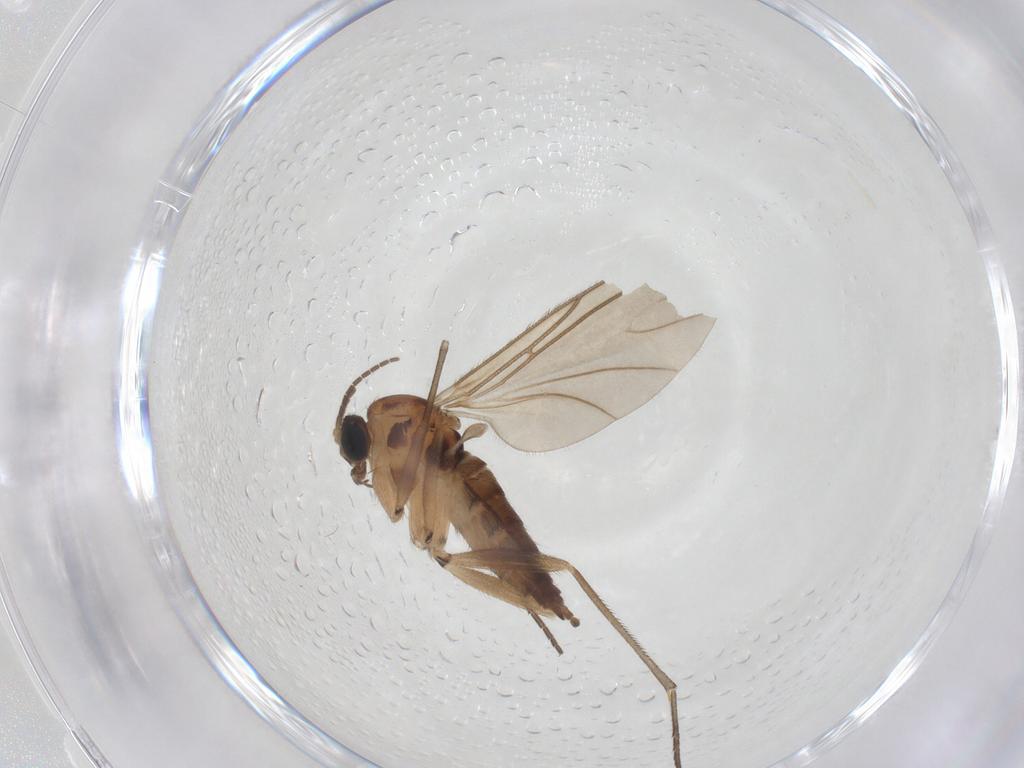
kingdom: Animalia
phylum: Arthropoda
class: Insecta
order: Diptera
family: Sciaridae
